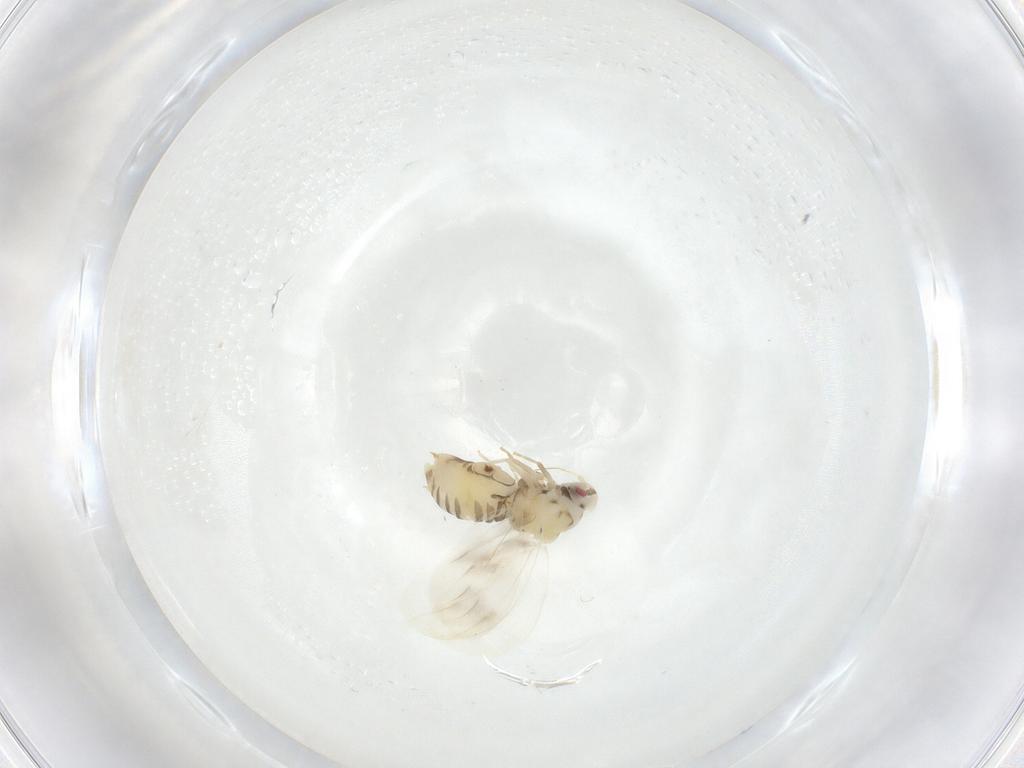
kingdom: Animalia
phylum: Arthropoda
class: Insecta
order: Hemiptera
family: Aleyrodidae
